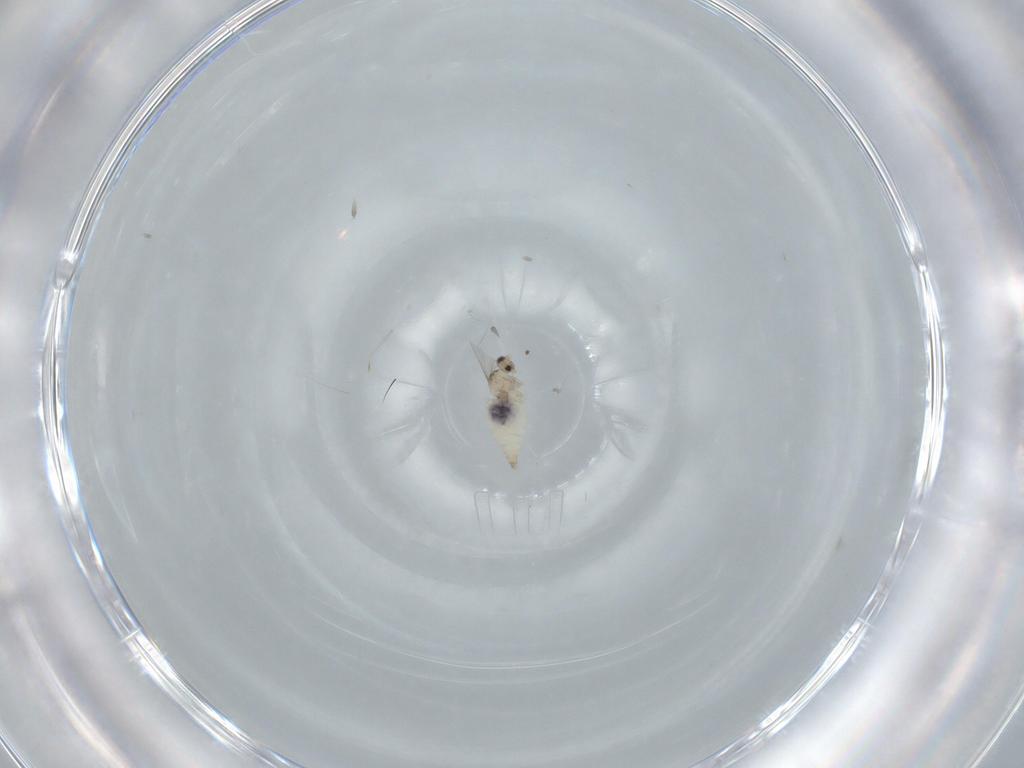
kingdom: Animalia
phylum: Arthropoda
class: Insecta
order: Diptera
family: Cecidomyiidae
